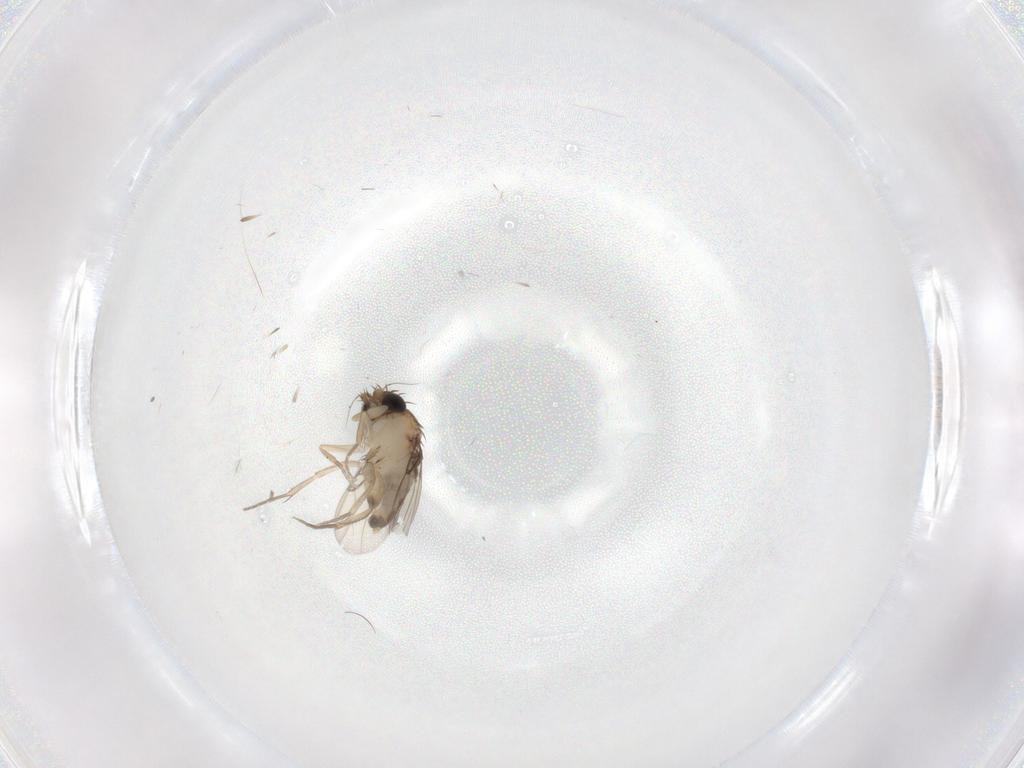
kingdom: Animalia
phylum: Arthropoda
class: Insecta
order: Diptera
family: Phoridae
